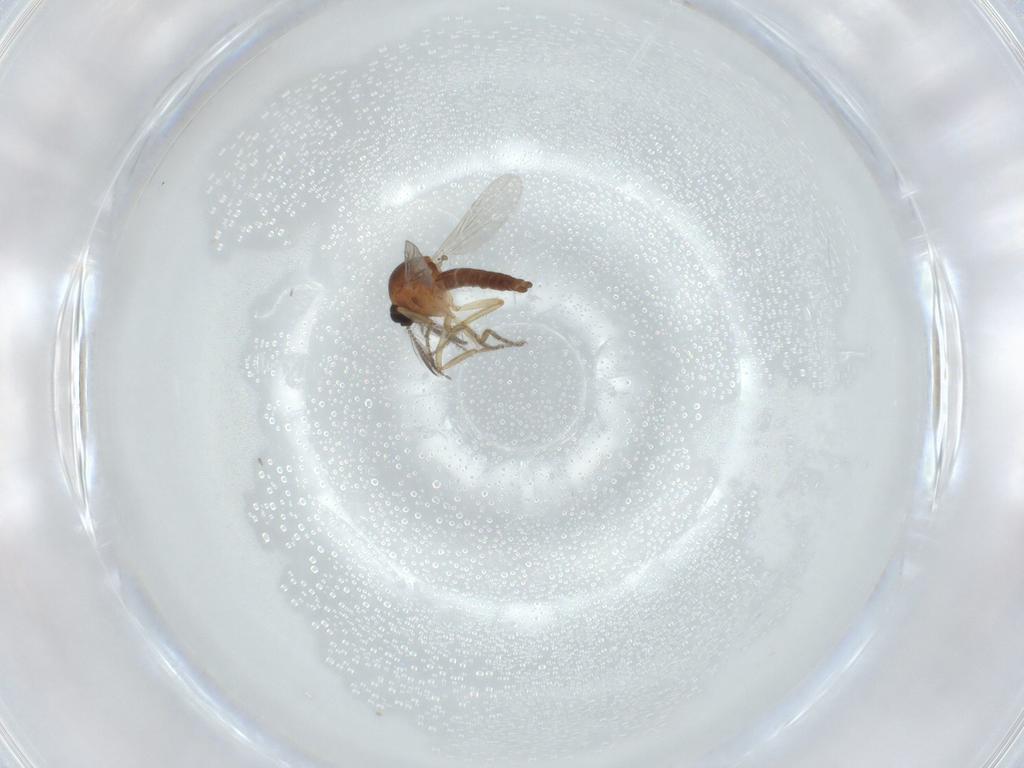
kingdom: Animalia
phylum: Arthropoda
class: Insecta
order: Diptera
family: Ceratopogonidae
